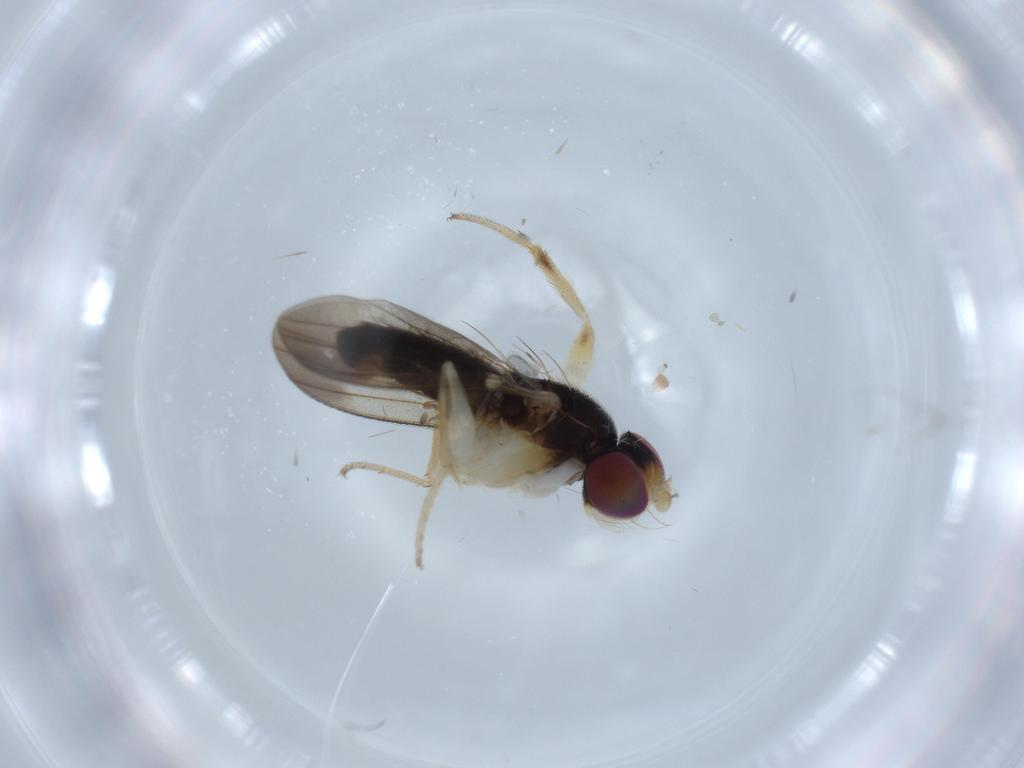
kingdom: Animalia
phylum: Arthropoda
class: Insecta
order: Diptera
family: Clusiidae
